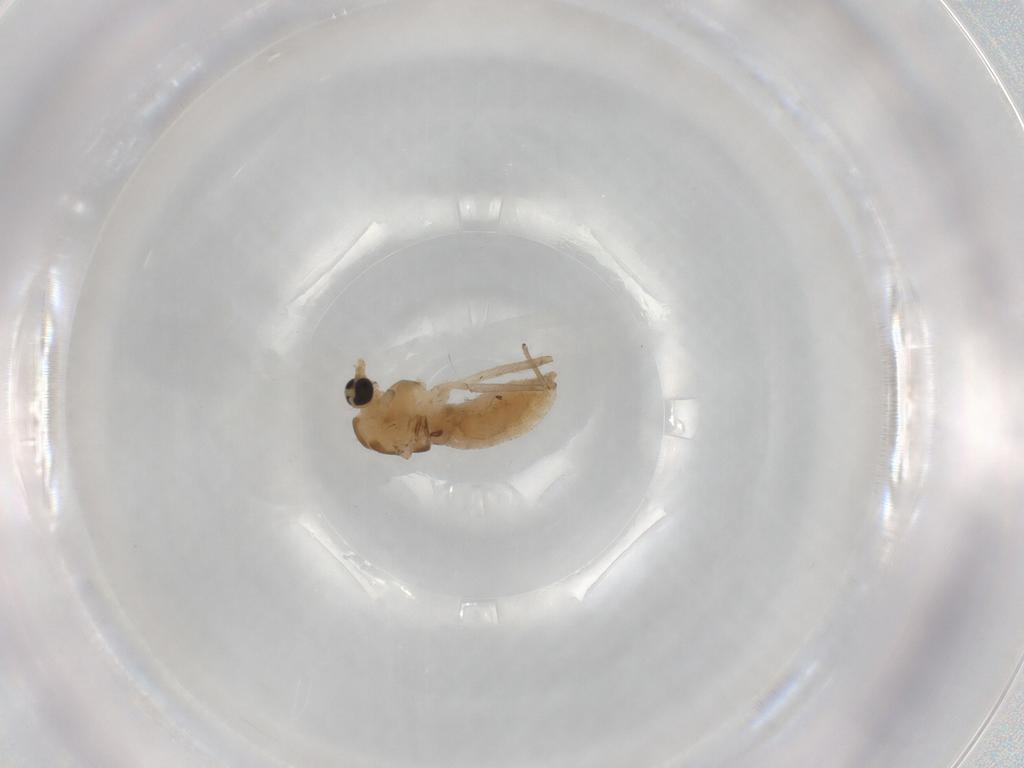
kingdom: Animalia
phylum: Arthropoda
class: Insecta
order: Diptera
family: Chironomidae
